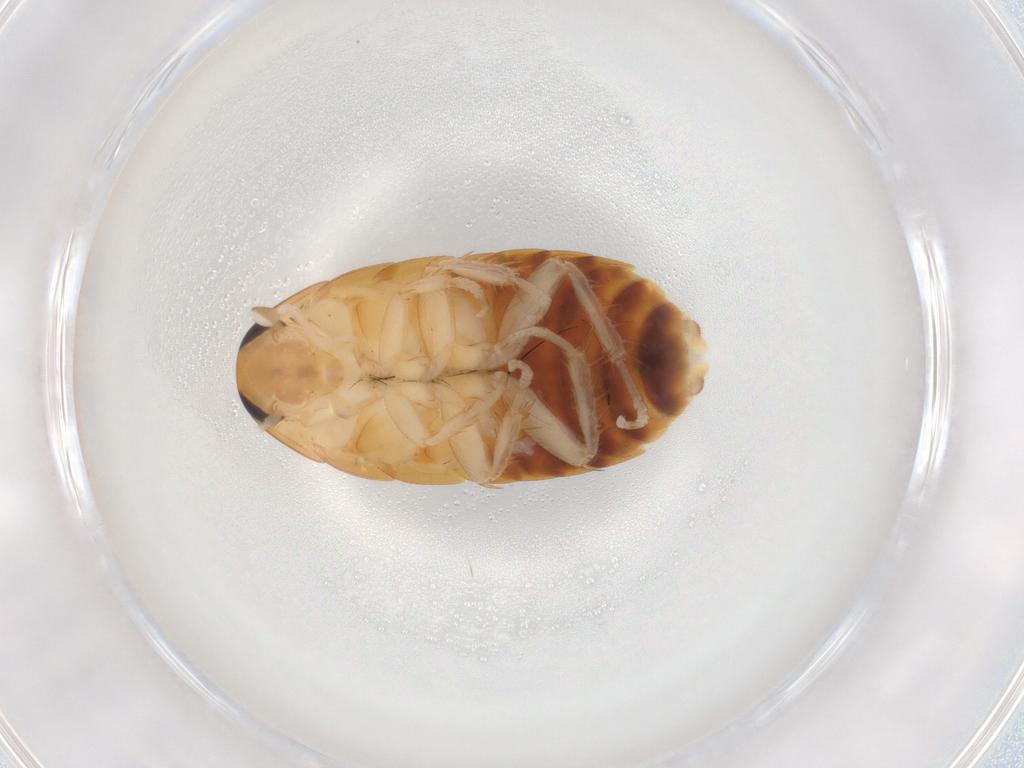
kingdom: Animalia
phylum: Arthropoda
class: Insecta
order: Blattodea
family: Blaberidae
